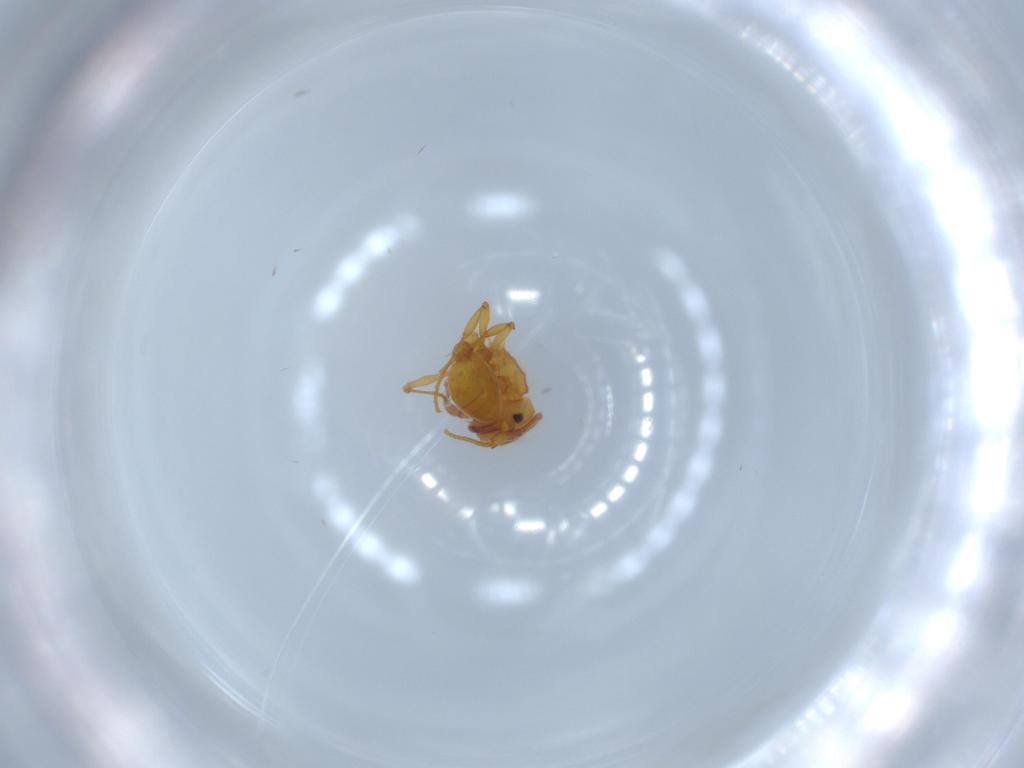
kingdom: Animalia
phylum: Arthropoda
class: Insecta
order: Hymenoptera
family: Formicidae
